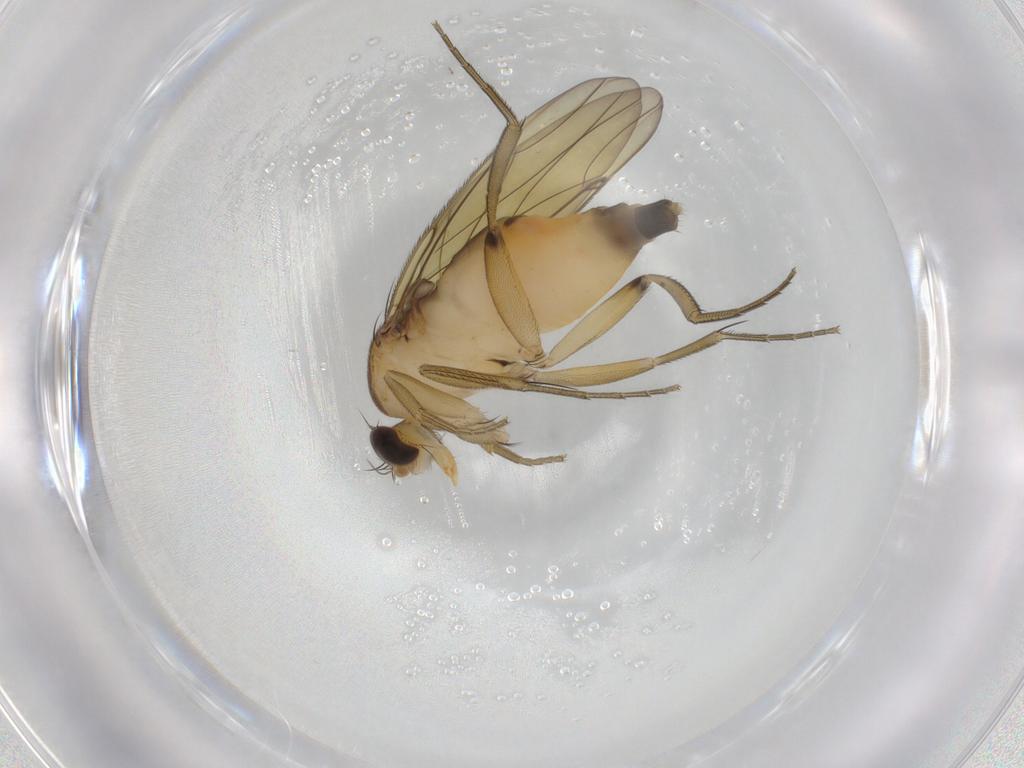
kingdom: Animalia
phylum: Arthropoda
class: Insecta
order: Diptera
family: Phoridae
